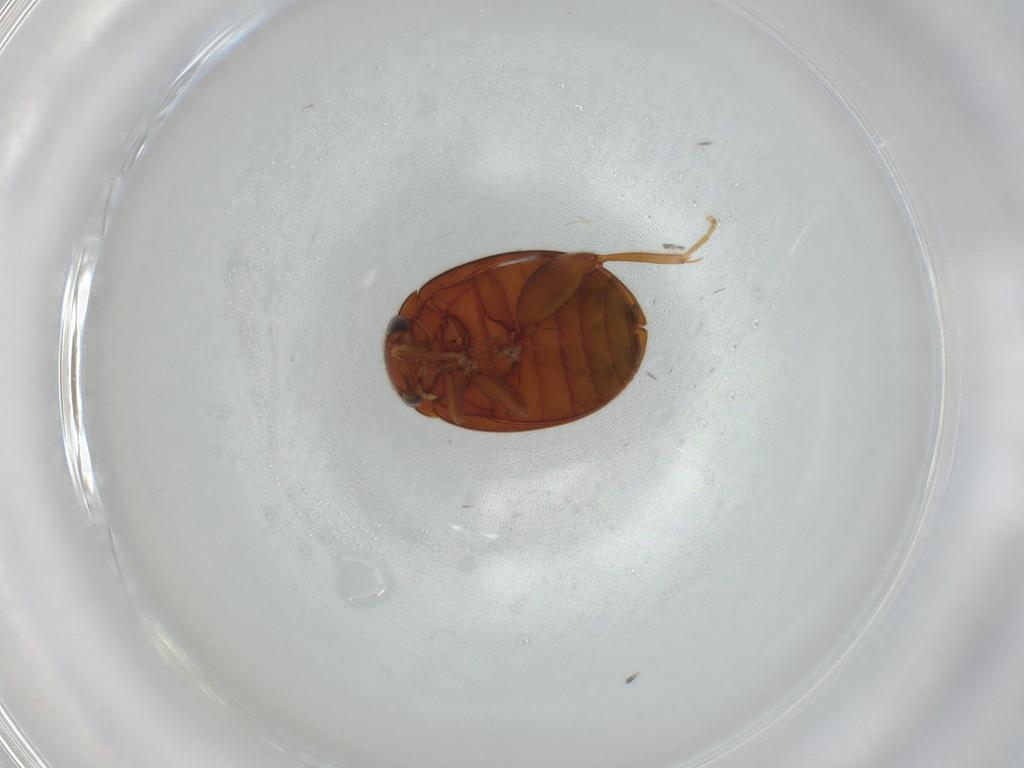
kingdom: Animalia
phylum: Arthropoda
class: Insecta
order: Coleoptera
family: Scirtidae
